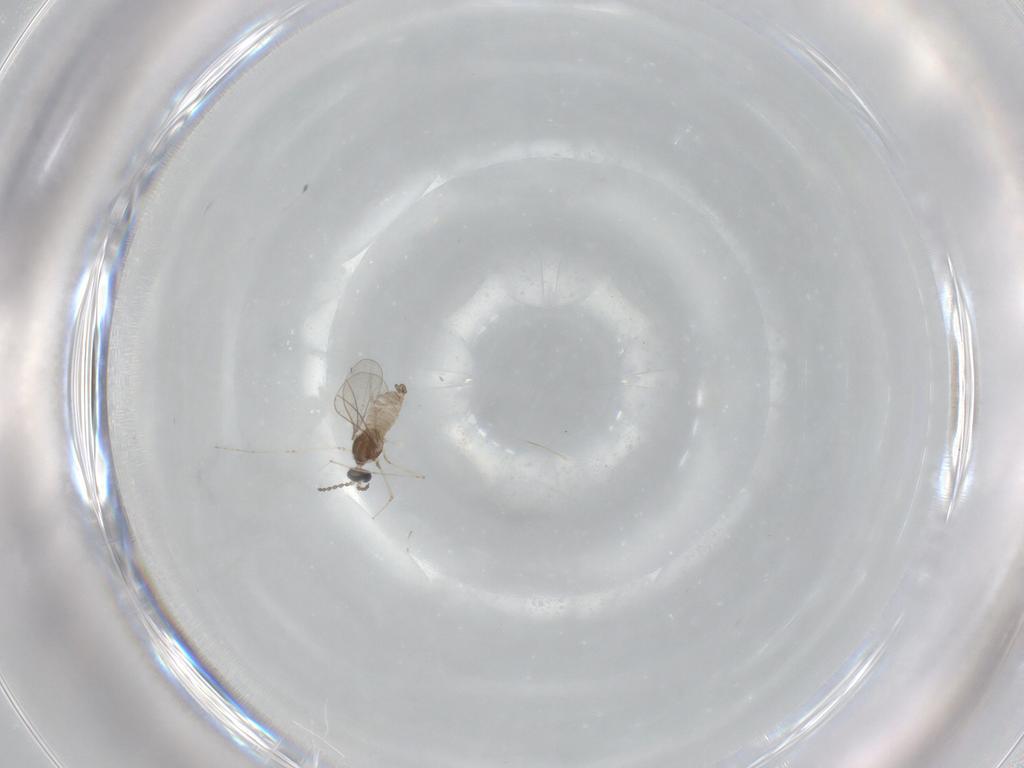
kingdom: Animalia
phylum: Arthropoda
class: Insecta
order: Diptera
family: Cecidomyiidae
